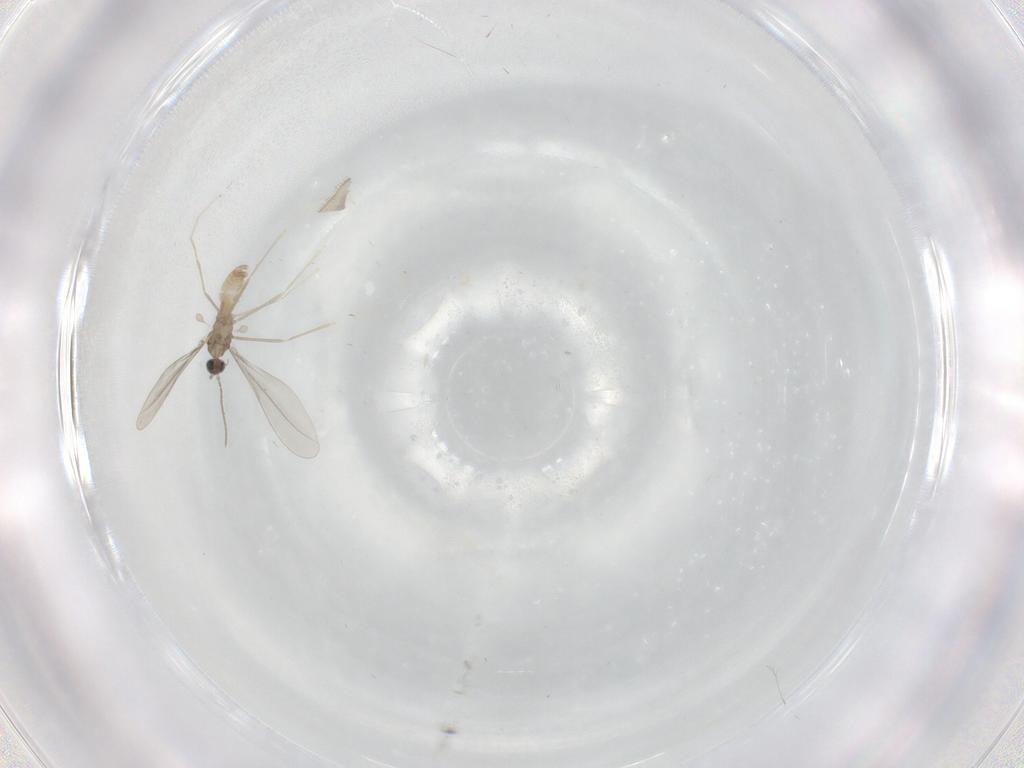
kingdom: Animalia
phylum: Arthropoda
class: Insecta
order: Diptera
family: Cecidomyiidae
